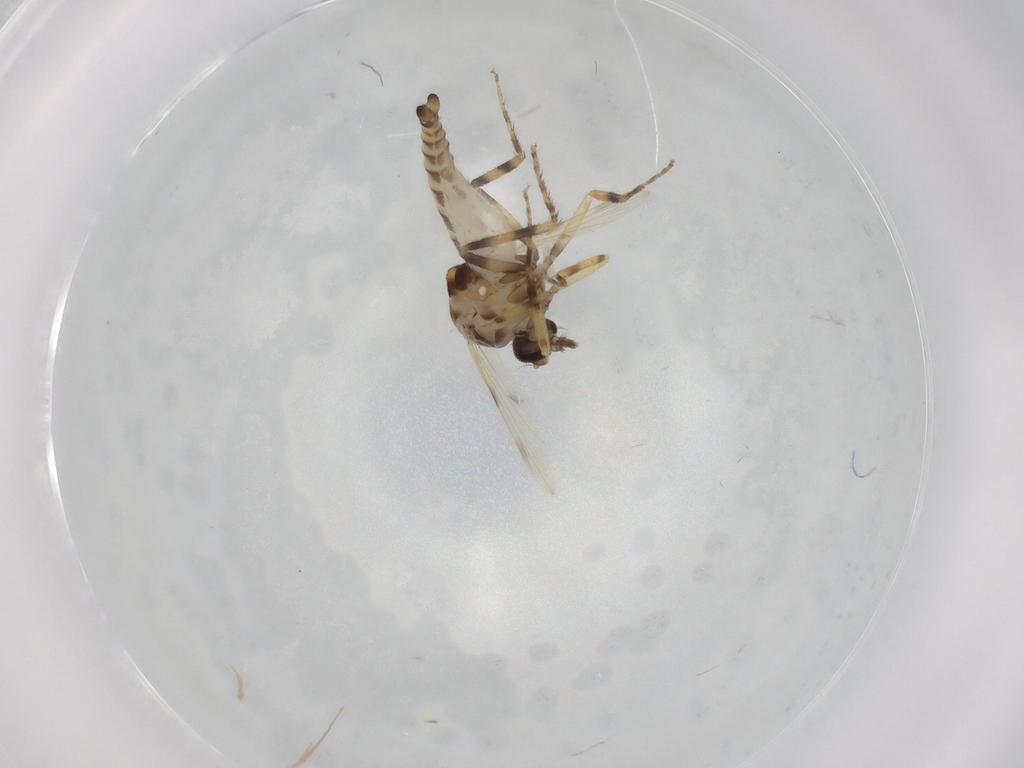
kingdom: Animalia
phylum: Arthropoda
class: Insecta
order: Diptera
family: Ceratopogonidae
